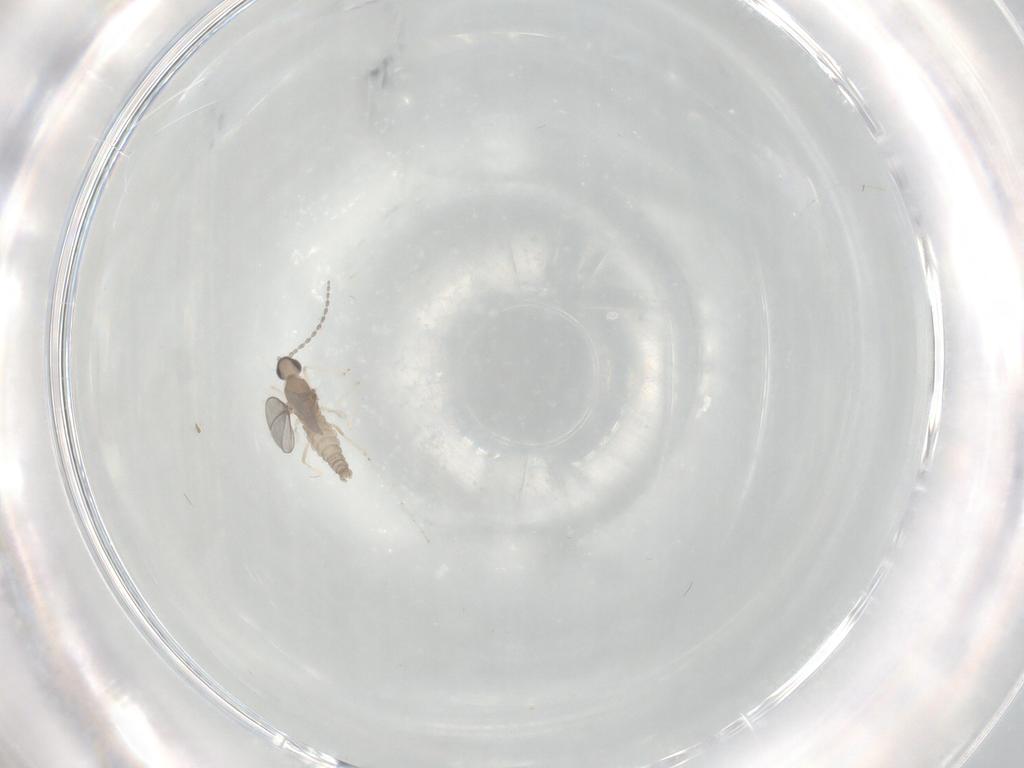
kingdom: Animalia
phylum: Arthropoda
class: Insecta
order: Diptera
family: Cecidomyiidae
